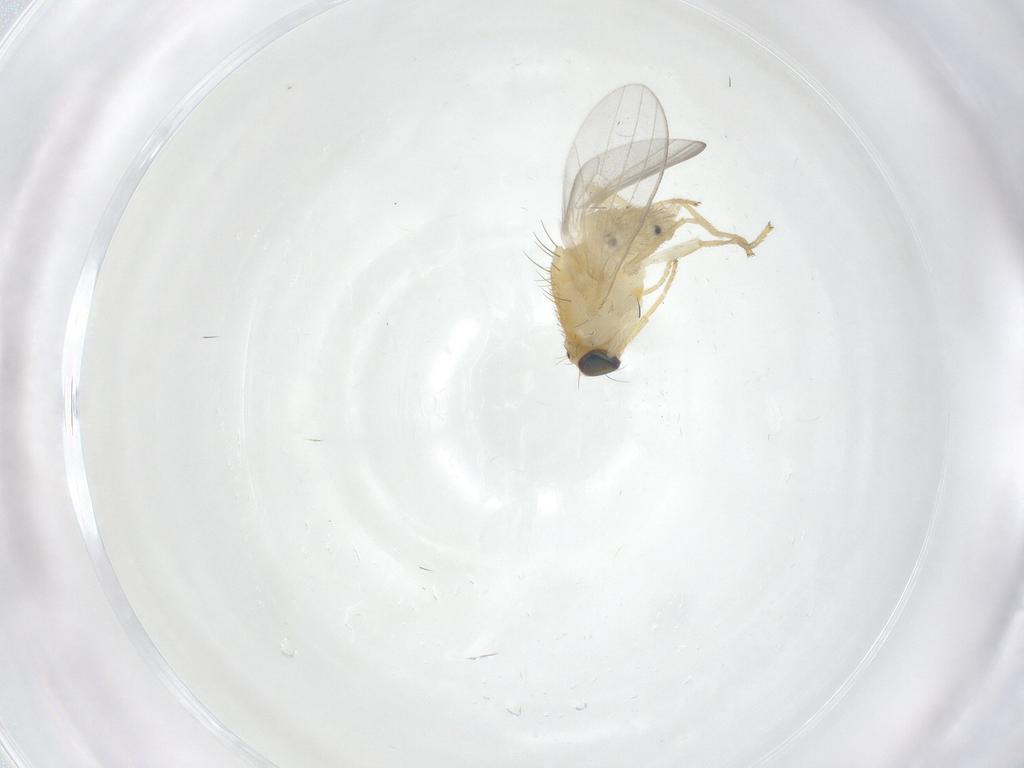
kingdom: Animalia
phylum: Arthropoda
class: Insecta
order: Diptera
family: Chyromyidae
